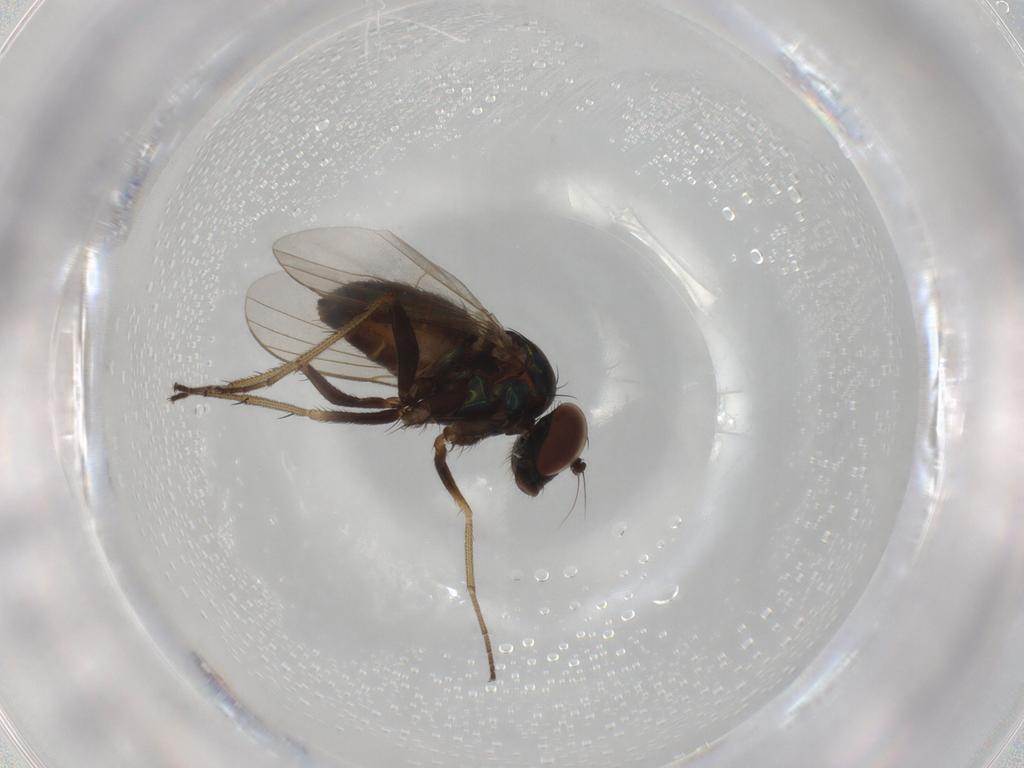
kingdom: Animalia
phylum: Arthropoda
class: Insecta
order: Diptera
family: Dolichopodidae
